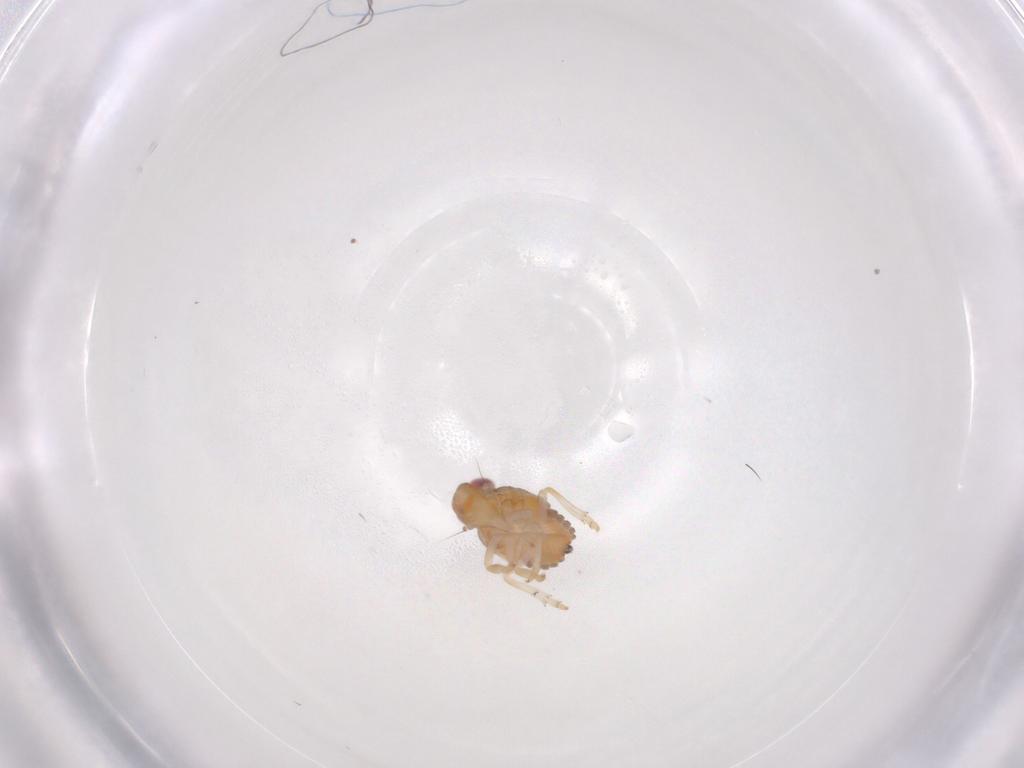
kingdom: Animalia
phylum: Arthropoda
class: Insecta
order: Hemiptera
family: Issidae
